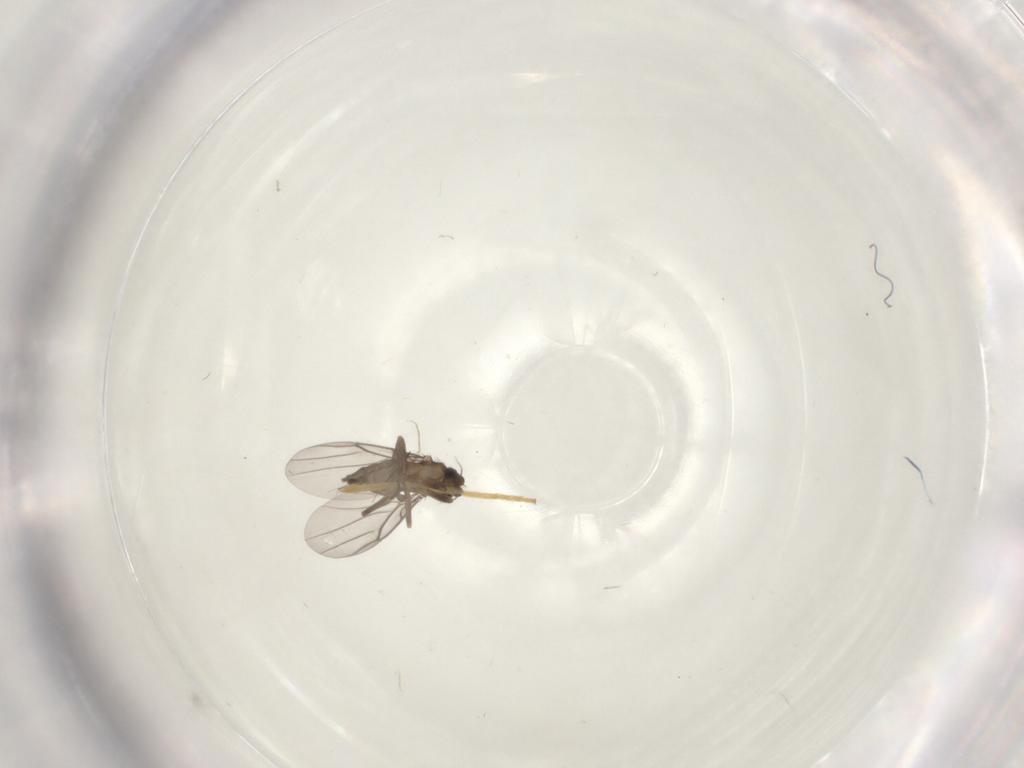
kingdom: Animalia
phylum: Arthropoda
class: Insecta
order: Diptera
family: Chironomidae
